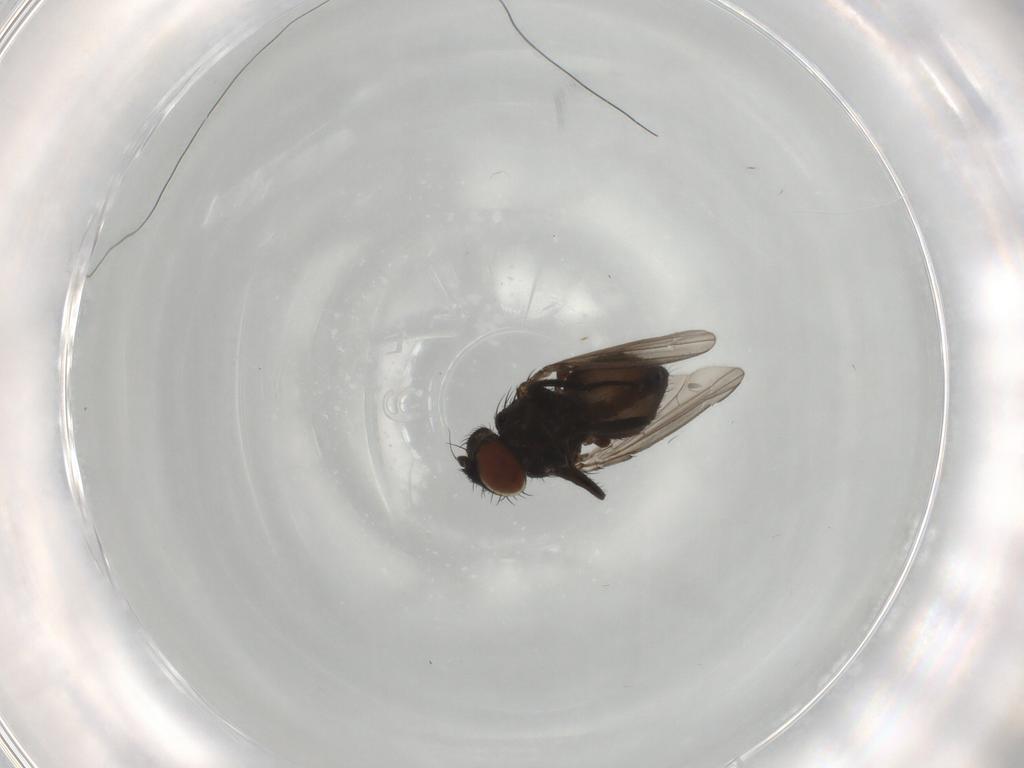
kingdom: Animalia
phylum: Arthropoda
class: Insecta
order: Diptera
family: Milichiidae
